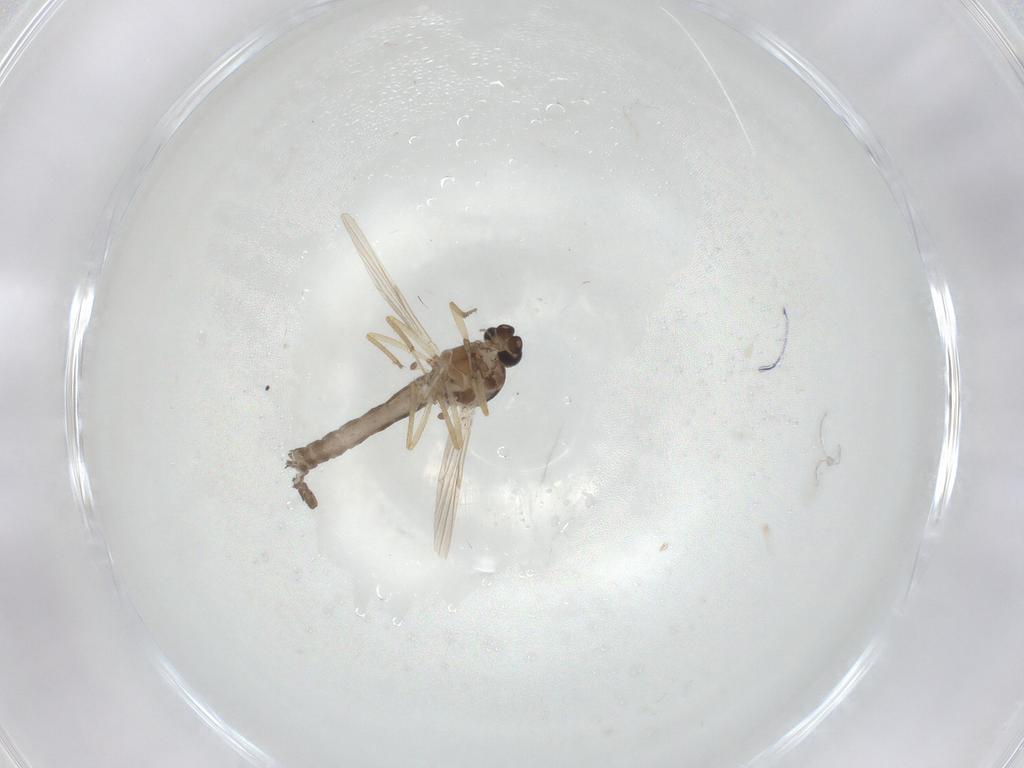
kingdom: Animalia
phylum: Arthropoda
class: Insecta
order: Diptera
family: Ceratopogonidae
